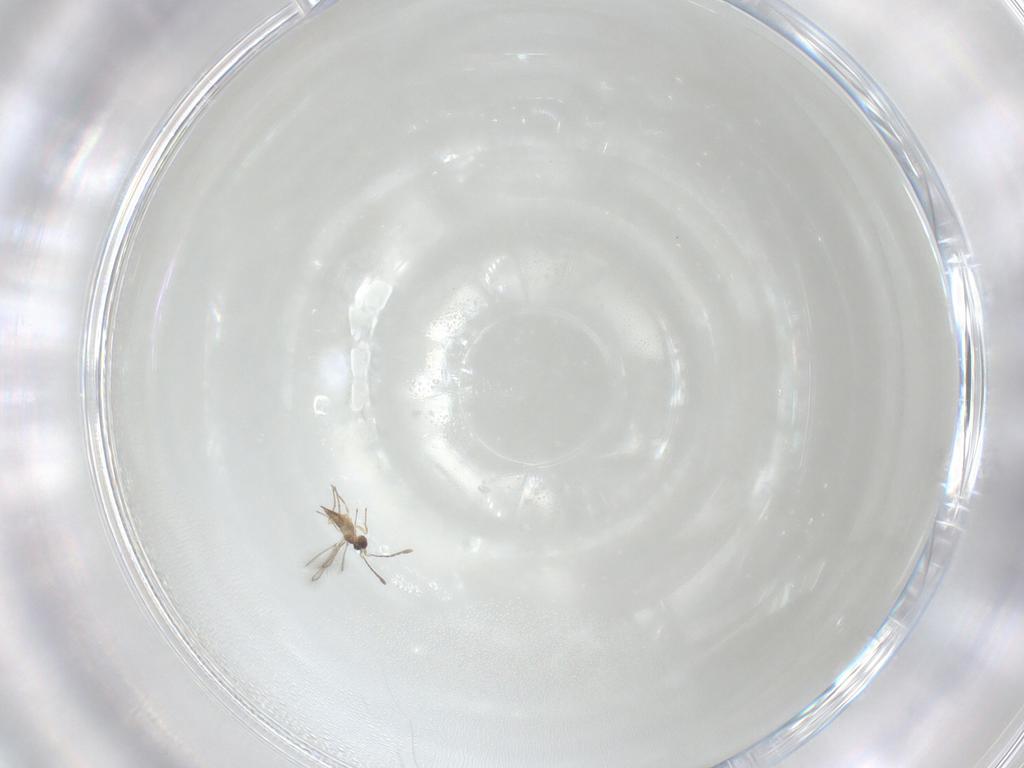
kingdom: Animalia
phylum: Arthropoda
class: Insecta
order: Hymenoptera
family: Mymaridae
